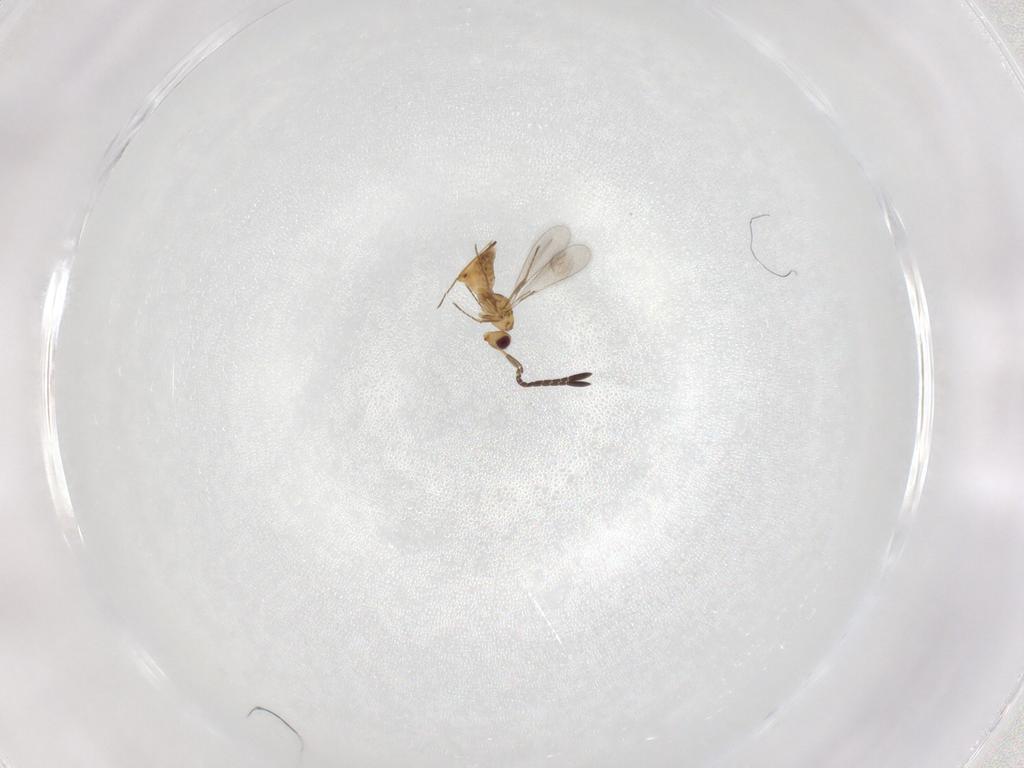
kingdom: Animalia
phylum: Arthropoda
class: Insecta
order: Hymenoptera
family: Mymaridae
